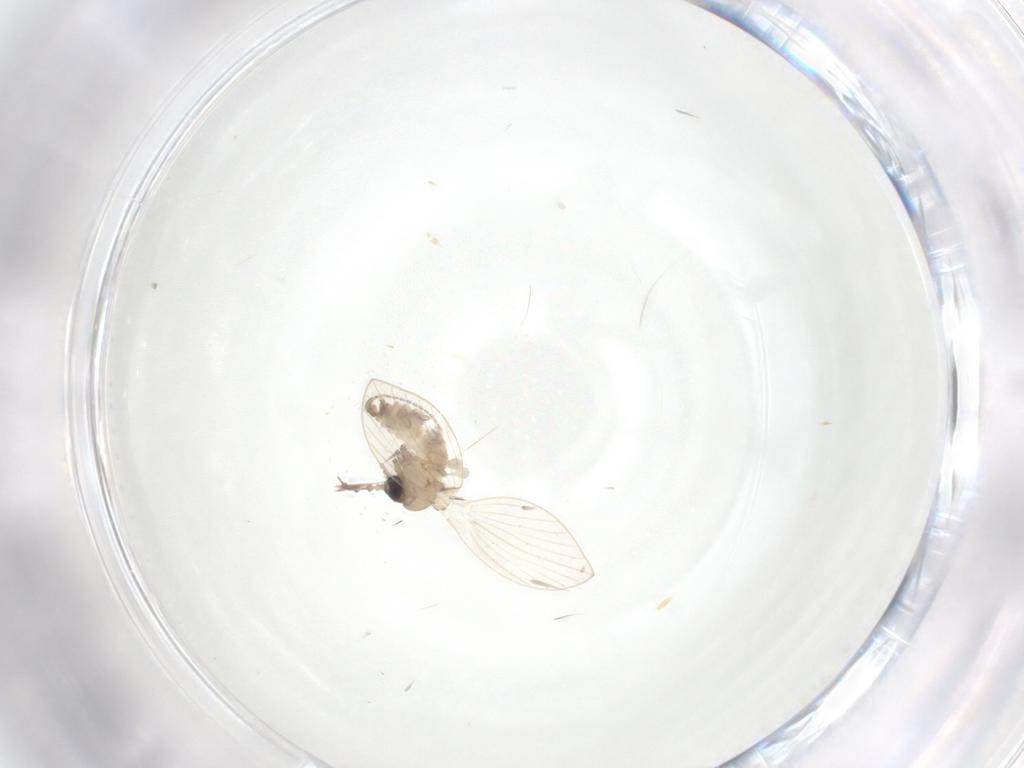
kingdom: Animalia
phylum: Arthropoda
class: Insecta
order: Diptera
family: Psychodidae
